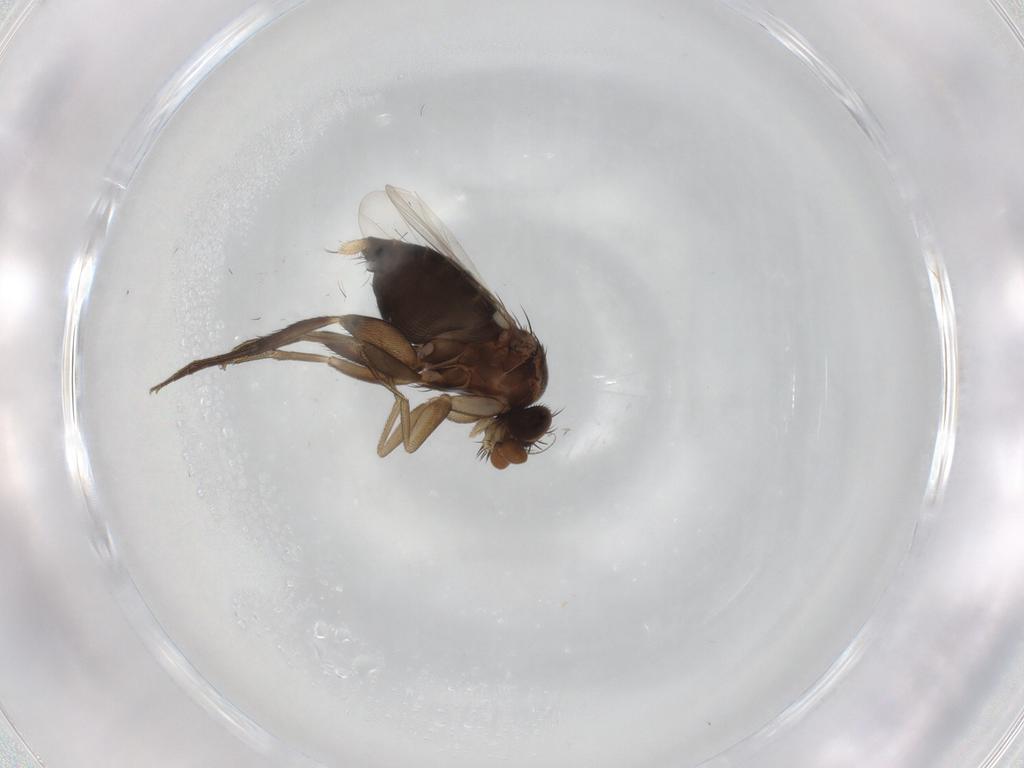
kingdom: Animalia
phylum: Arthropoda
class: Insecta
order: Diptera
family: Phoridae
